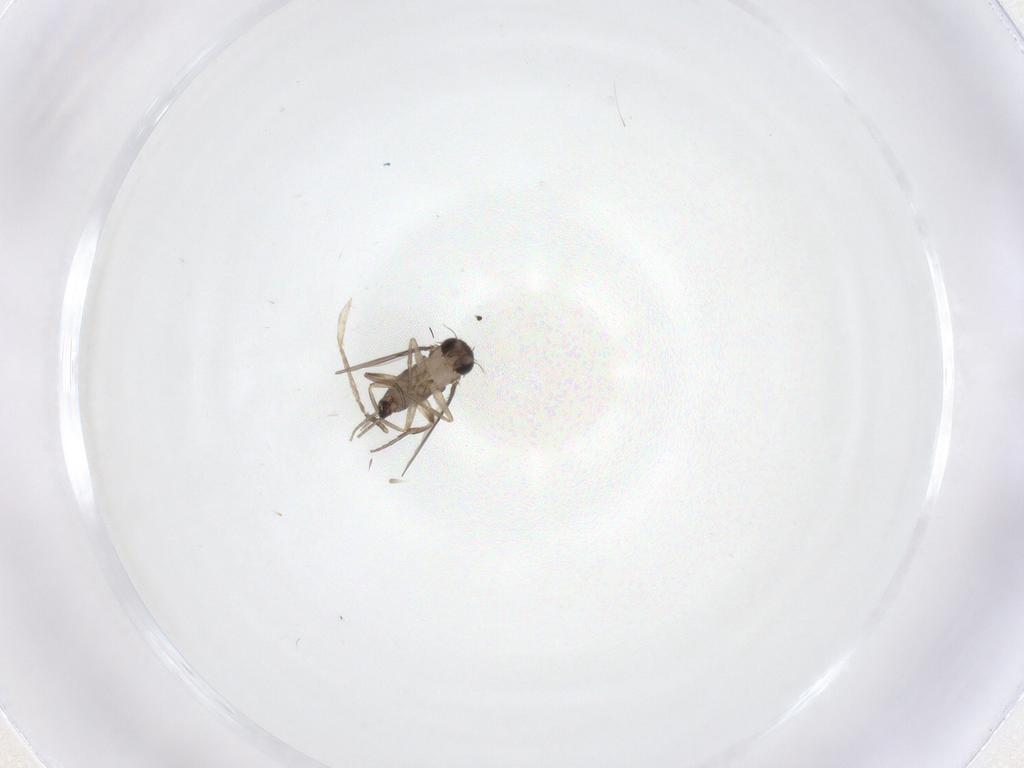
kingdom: Animalia
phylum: Arthropoda
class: Insecta
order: Diptera
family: Phoridae
